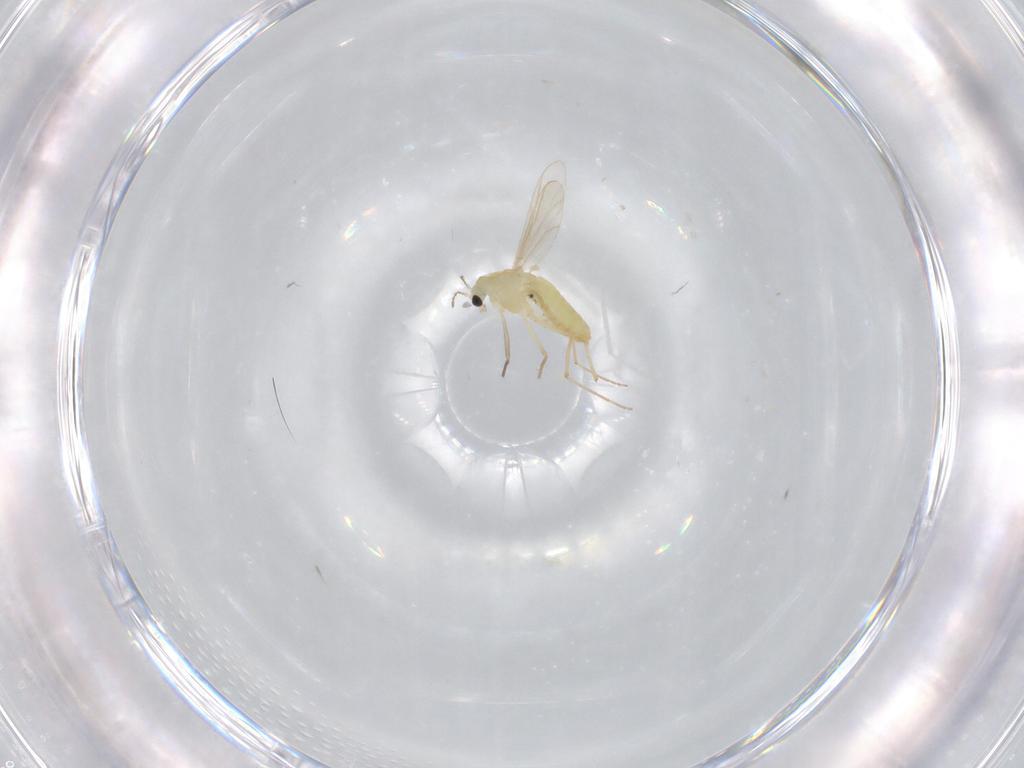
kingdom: Animalia
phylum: Arthropoda
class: Insecta
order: Diptera
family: Chironomidae
